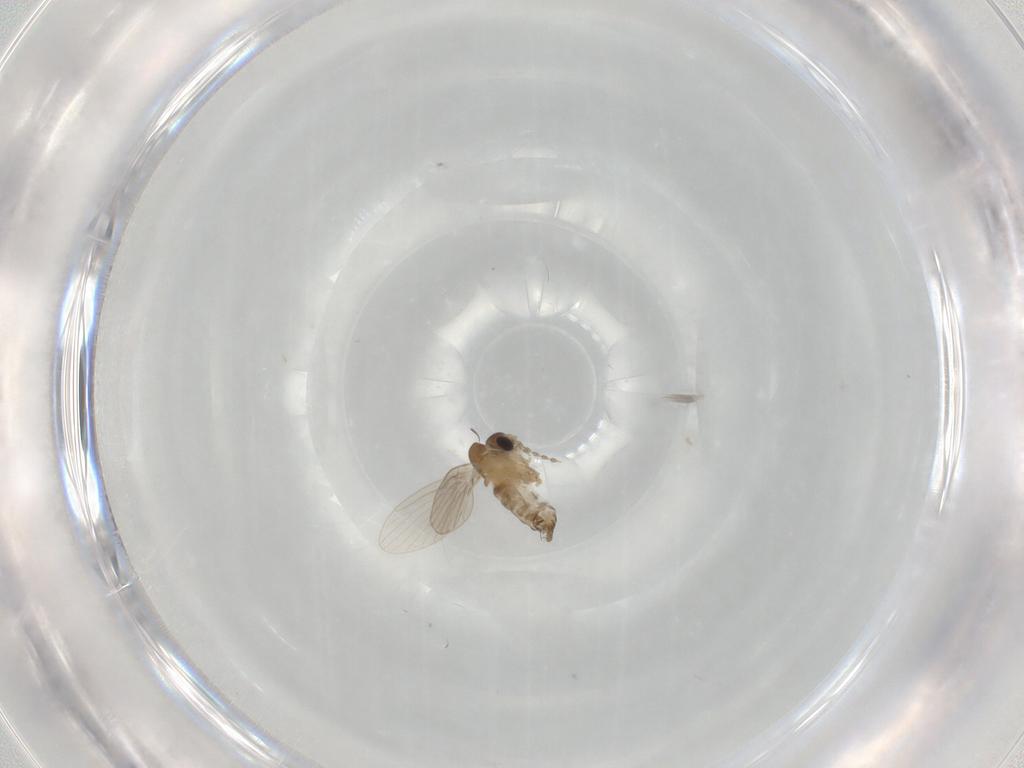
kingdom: Animalia
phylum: Arthropoda
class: Insecta
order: Diptera
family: Psychodidae
